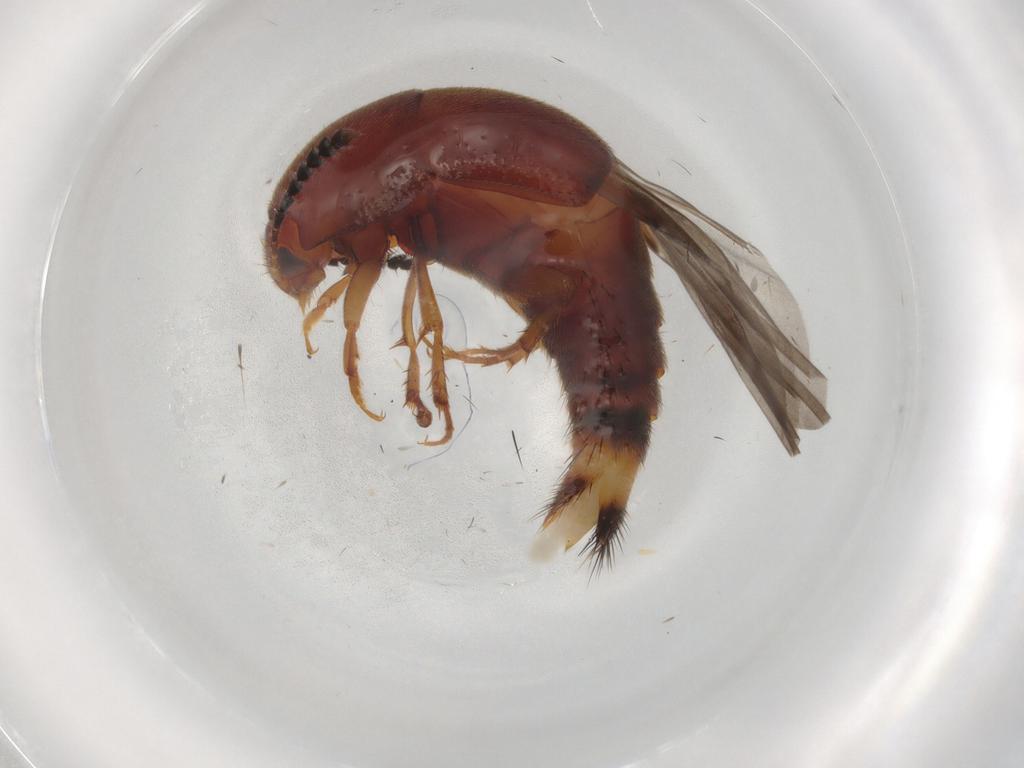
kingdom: Animalia
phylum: Arthropoda
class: Insecta
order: Coleoptera
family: Staphylinidae
